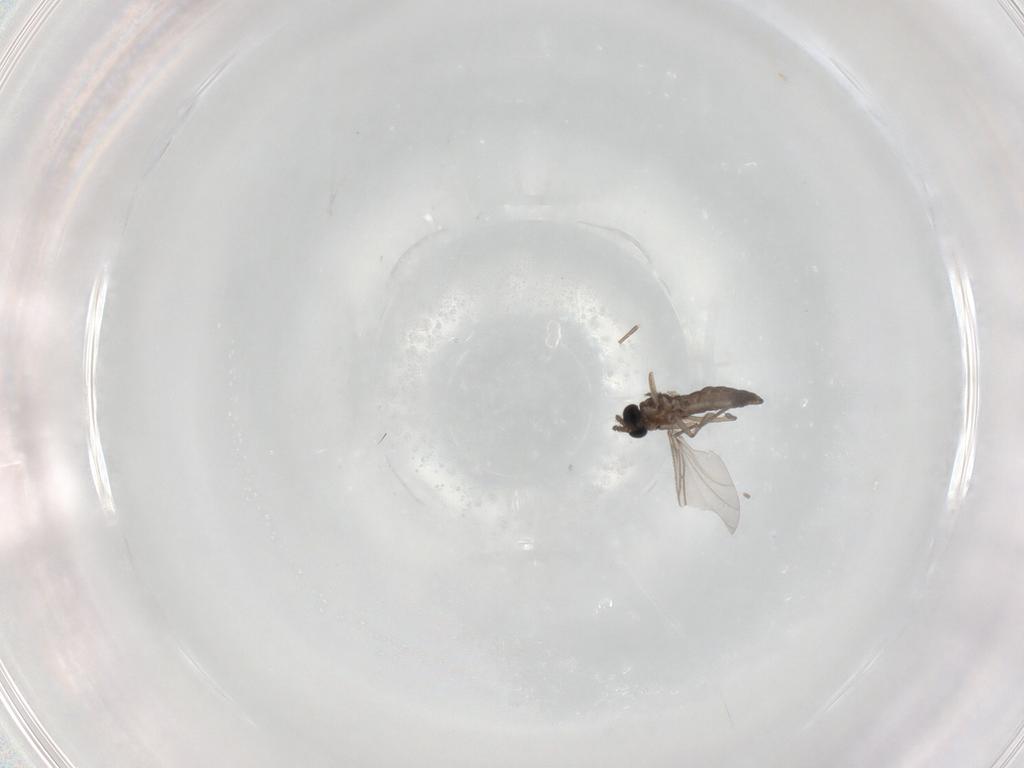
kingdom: Animalia
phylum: Arthropoda
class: Insecta
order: Diptera
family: Sciaridae
